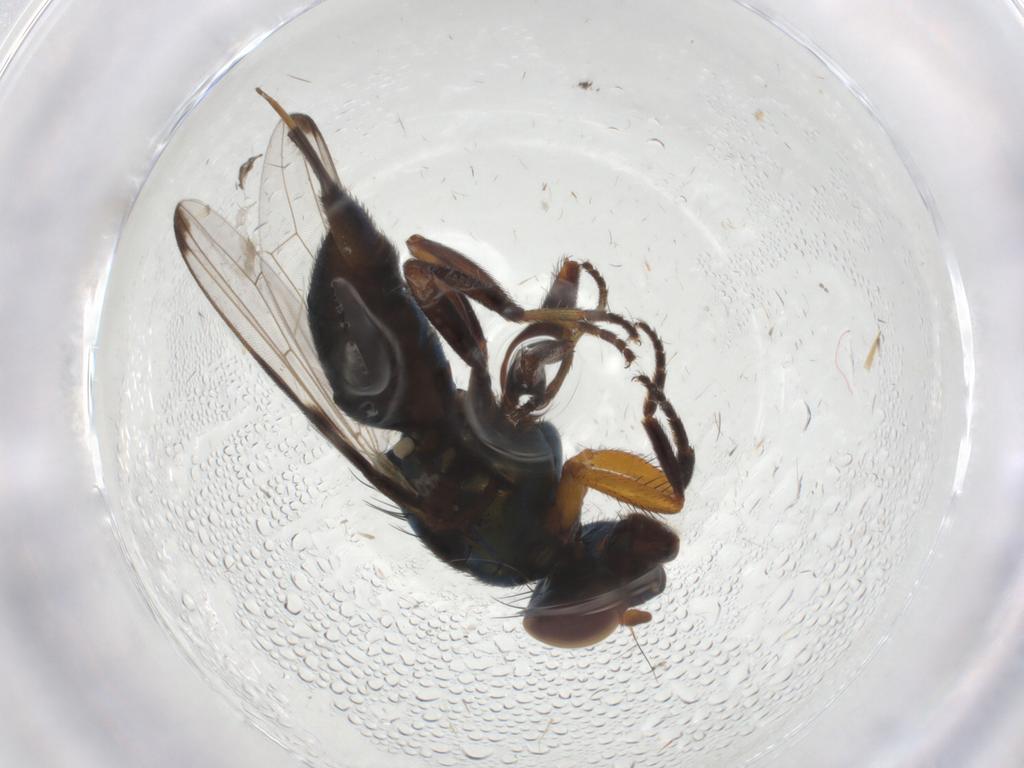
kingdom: Animalia
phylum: Arthropoda
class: Insecta
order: Diptera
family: Ulidiidae
